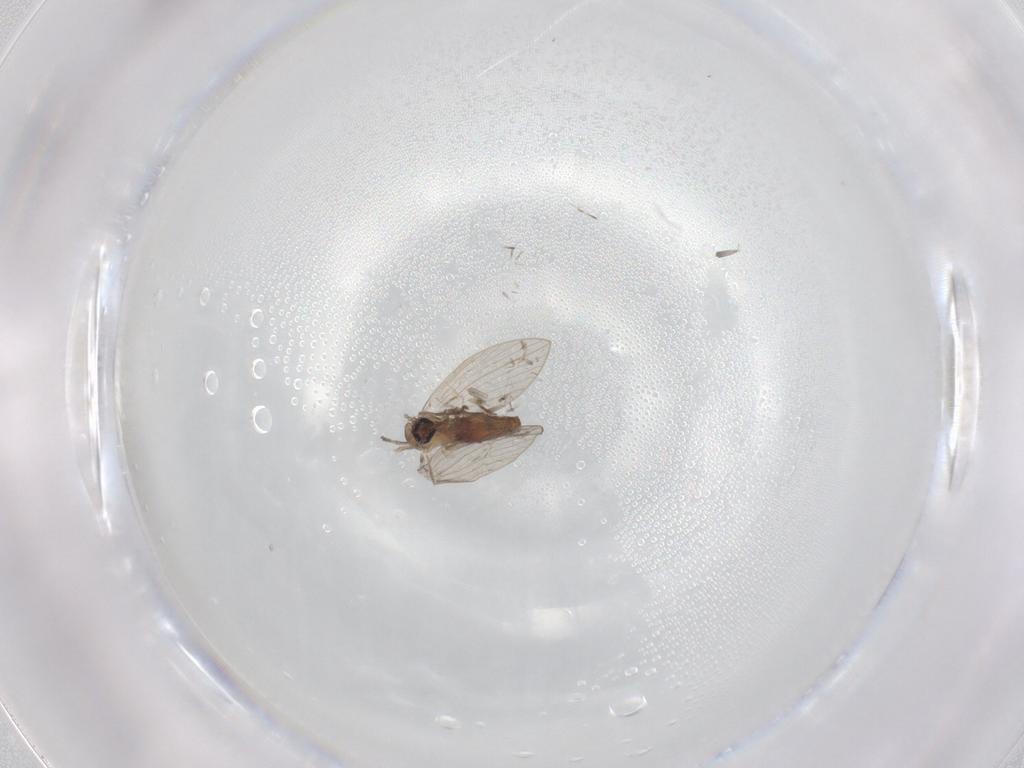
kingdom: Animalia
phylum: Arthropoda
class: Insecta
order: Diptera
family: Psychodidae
